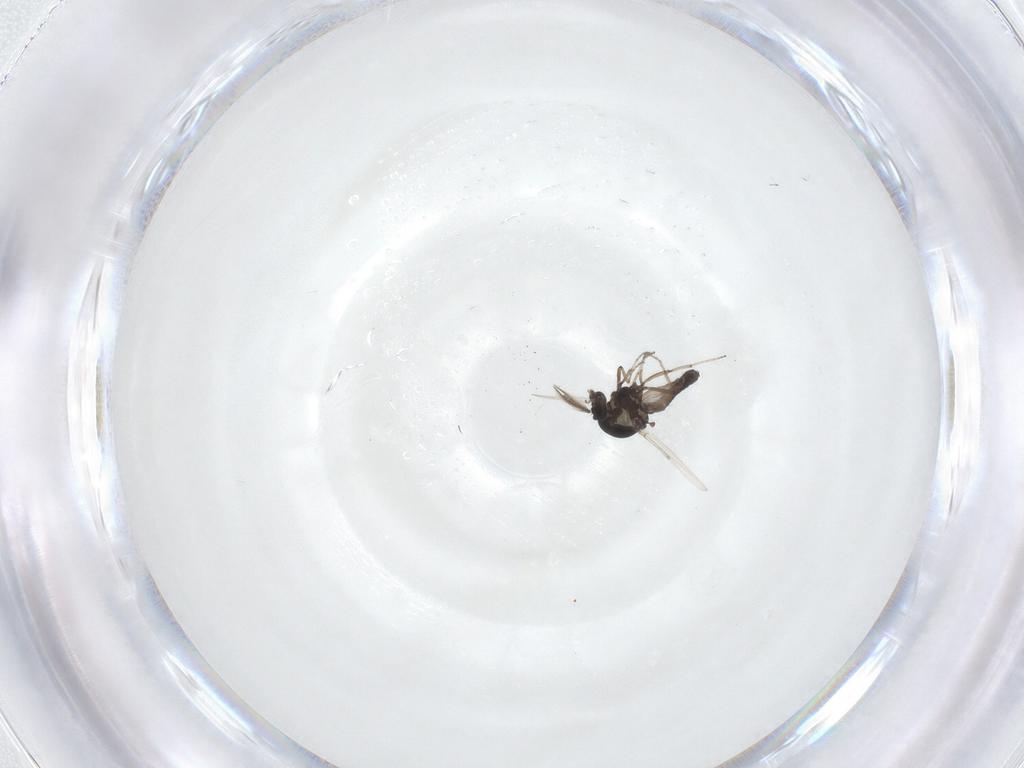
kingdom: Animalia
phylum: Arthropoda
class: Insecta
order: Diptera
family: Ceratopogonidae
